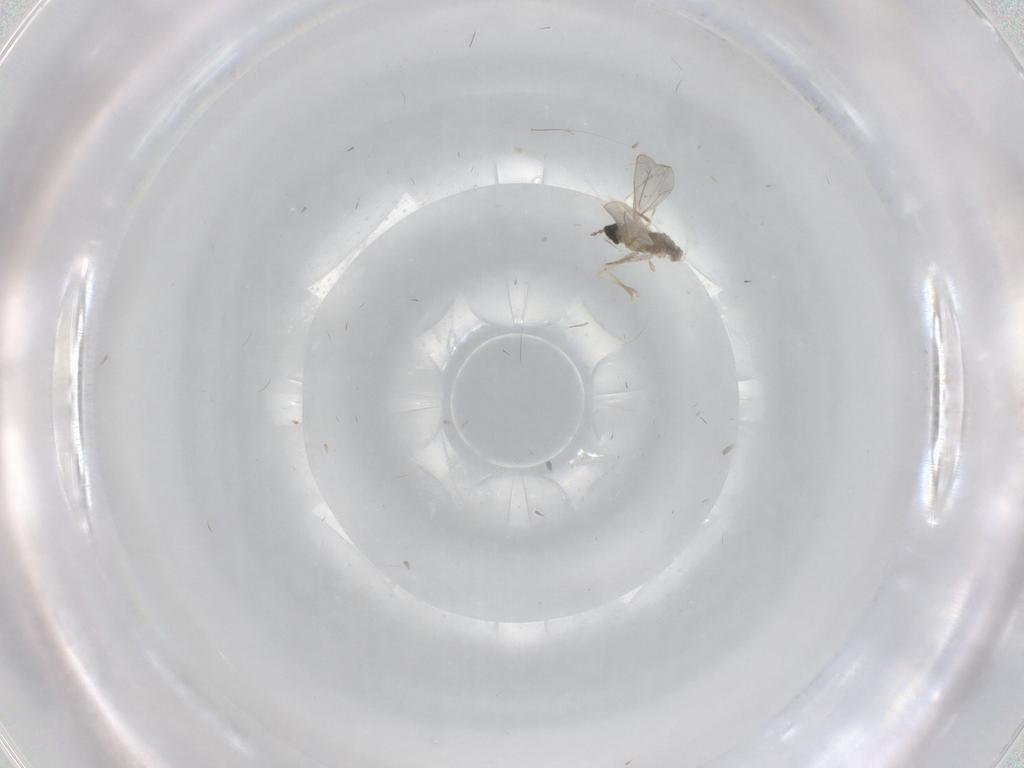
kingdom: Animalia
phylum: Arthropoda
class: Insecta
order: Diptera
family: Cecidomyiidae
